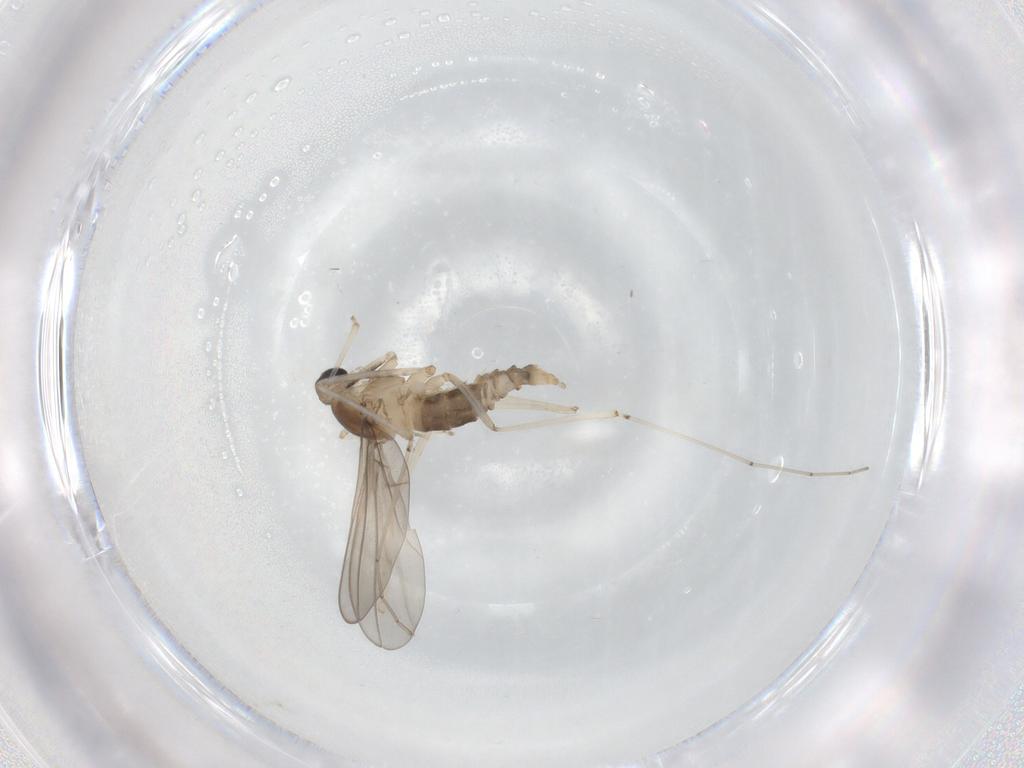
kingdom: Animalia
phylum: Arthropoda
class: Insecta
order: Diptera
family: Cecidomyiidae
